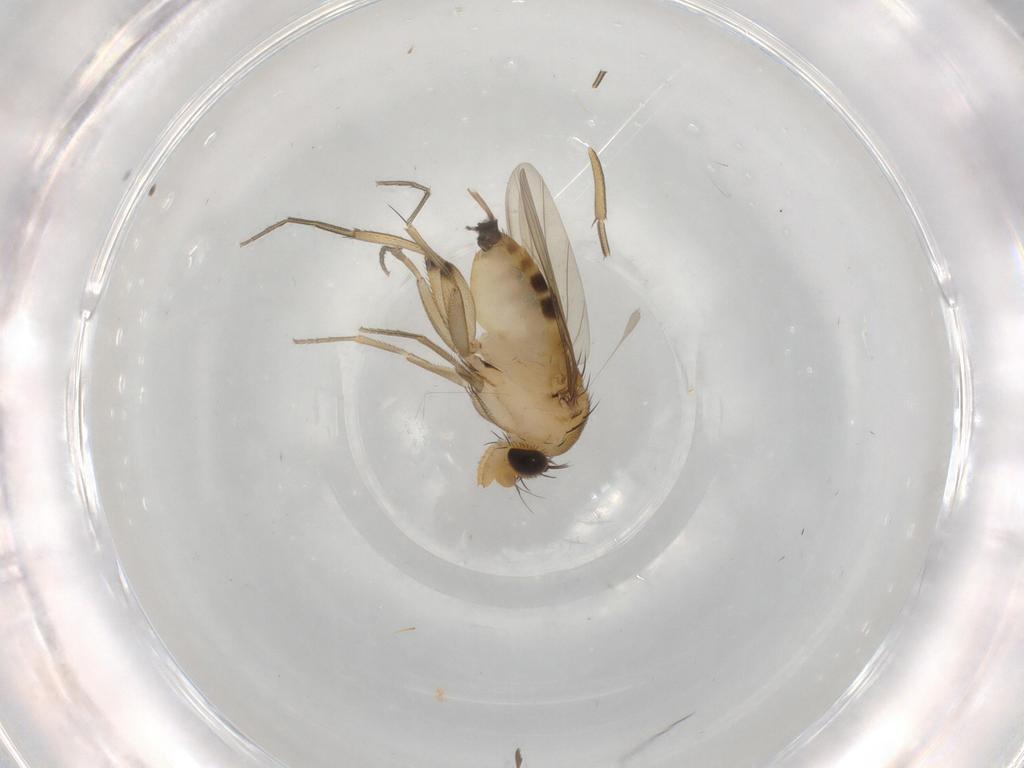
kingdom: Animalia
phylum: Arthropoda
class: Insecta
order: Diptera
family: Phoridae
